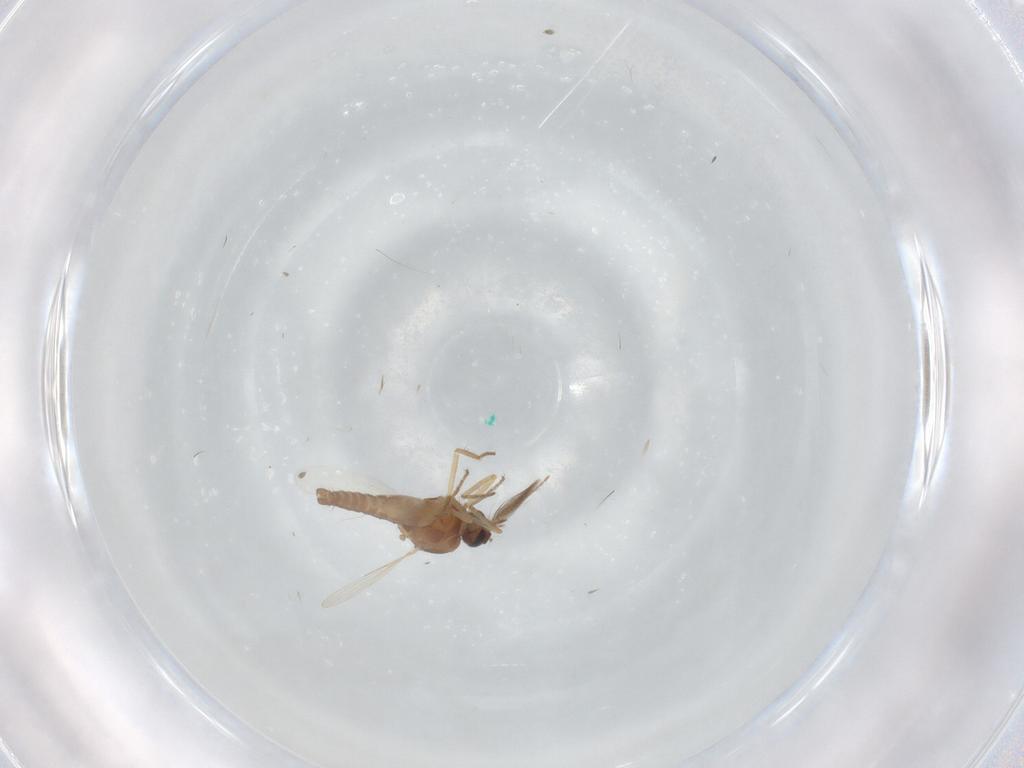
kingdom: Animalia
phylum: Arthropoda
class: Insecta
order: Diptera
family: Ceratopogonidae
